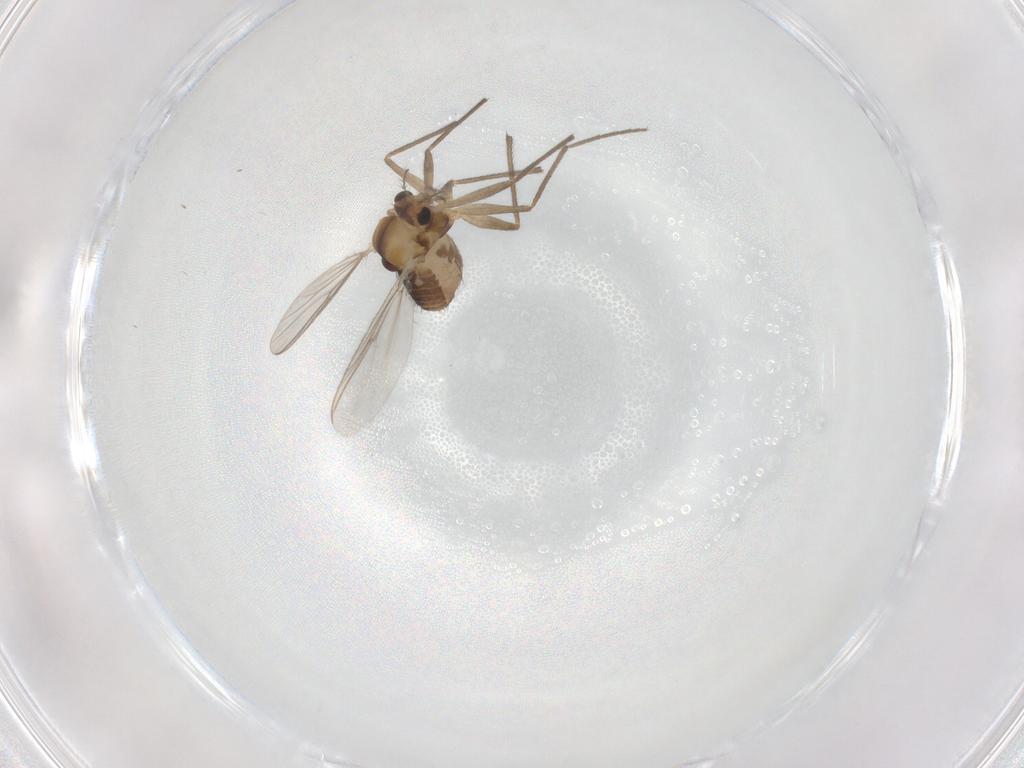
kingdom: Animalia
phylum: Arthropoda
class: Insecta
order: Diptera
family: Chironomidae
